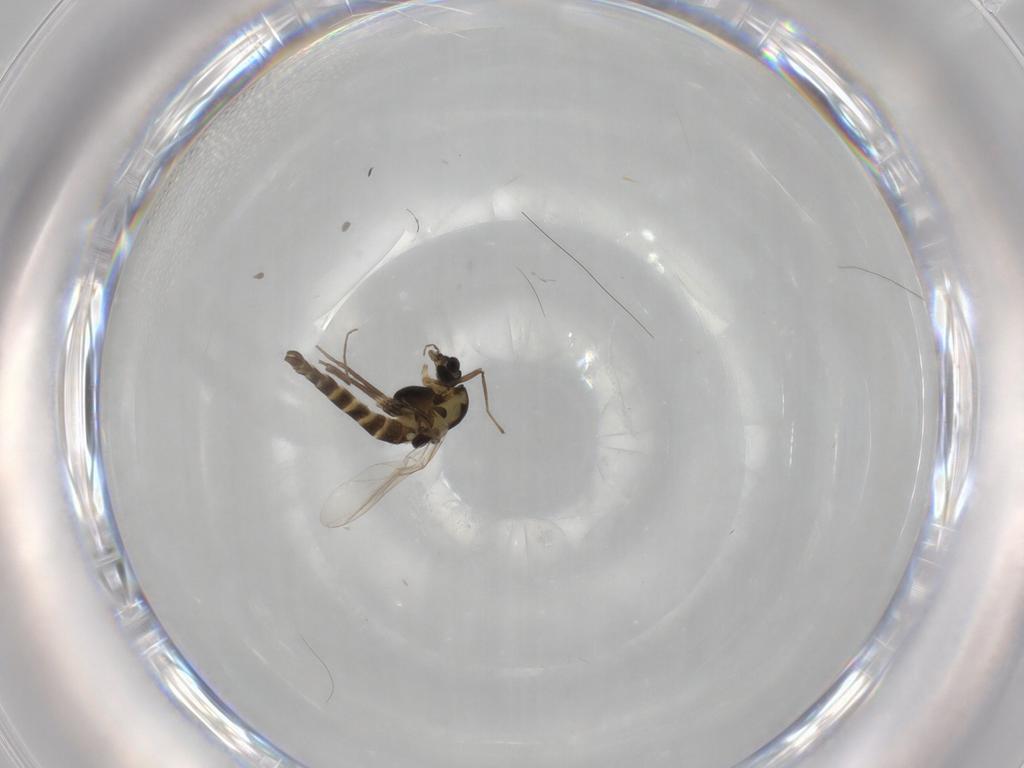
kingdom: Animalia
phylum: Arthropoda
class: Insecta
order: Diptera
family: Chironomidae
